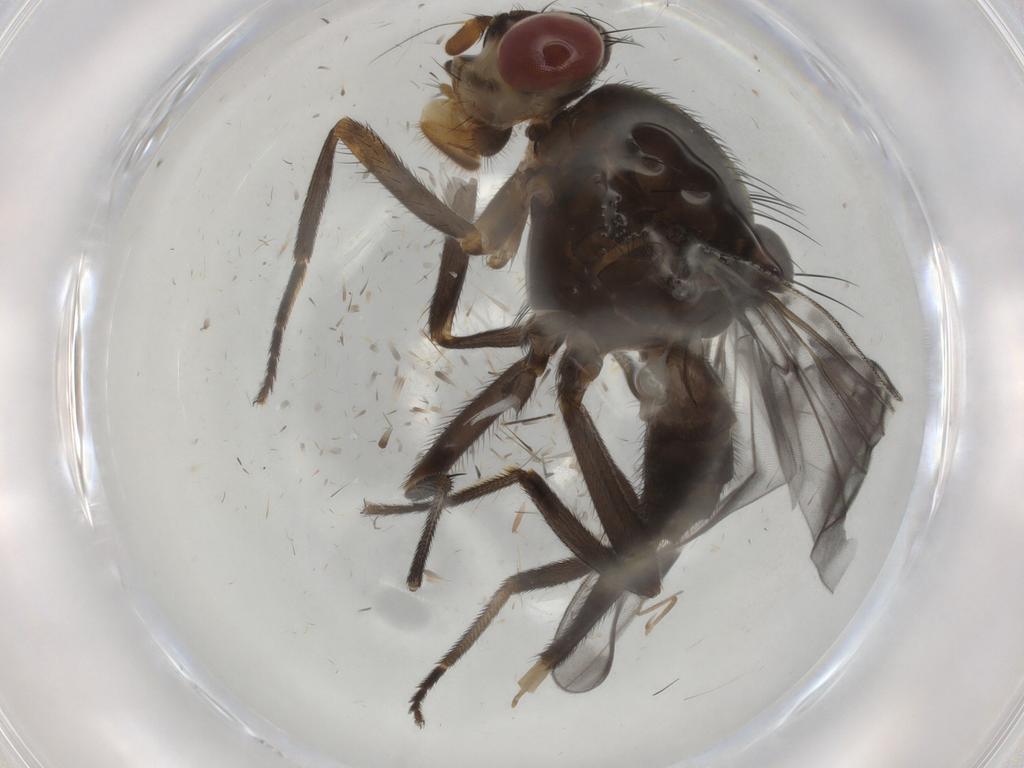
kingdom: Animalia
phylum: Arthropoda
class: Insecta
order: Diptera
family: Ulidiidae
